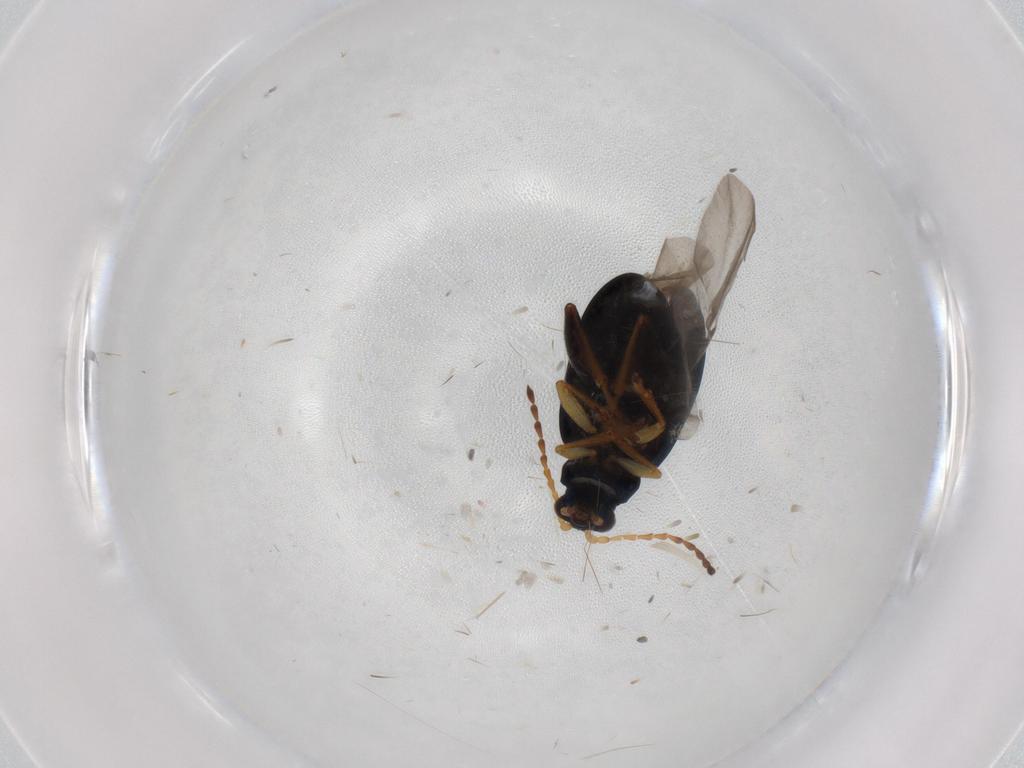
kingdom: Animalia
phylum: Arthropoda
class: Insecta
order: Coleoptera
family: Chrysomelidae
